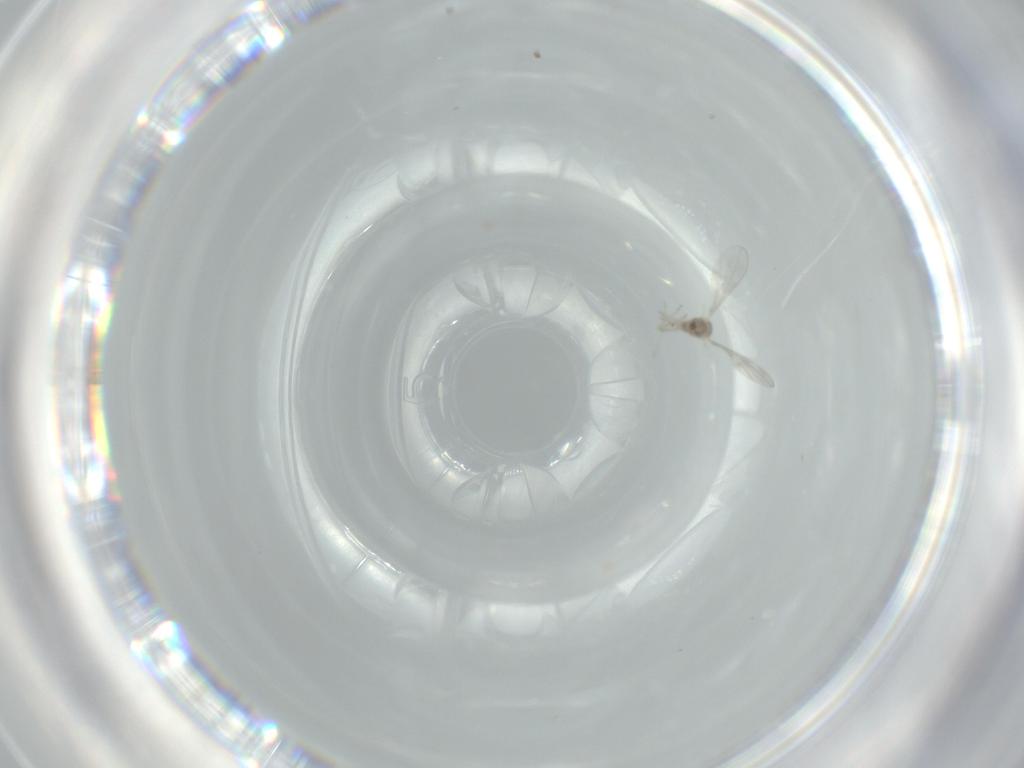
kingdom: Animalia
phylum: Arthropoda
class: Insecta
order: Diptera
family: Cecidomyiidae
